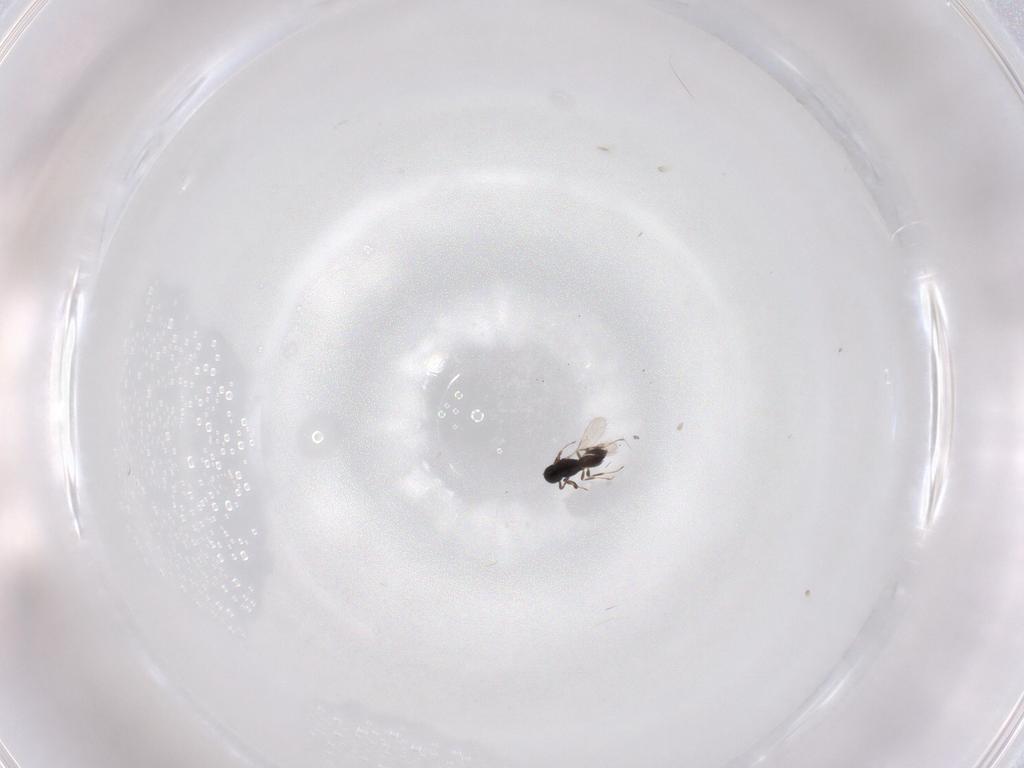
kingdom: Animalia
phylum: Arthropoda
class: Insecta
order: Hymenoptera
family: Scelionidae
